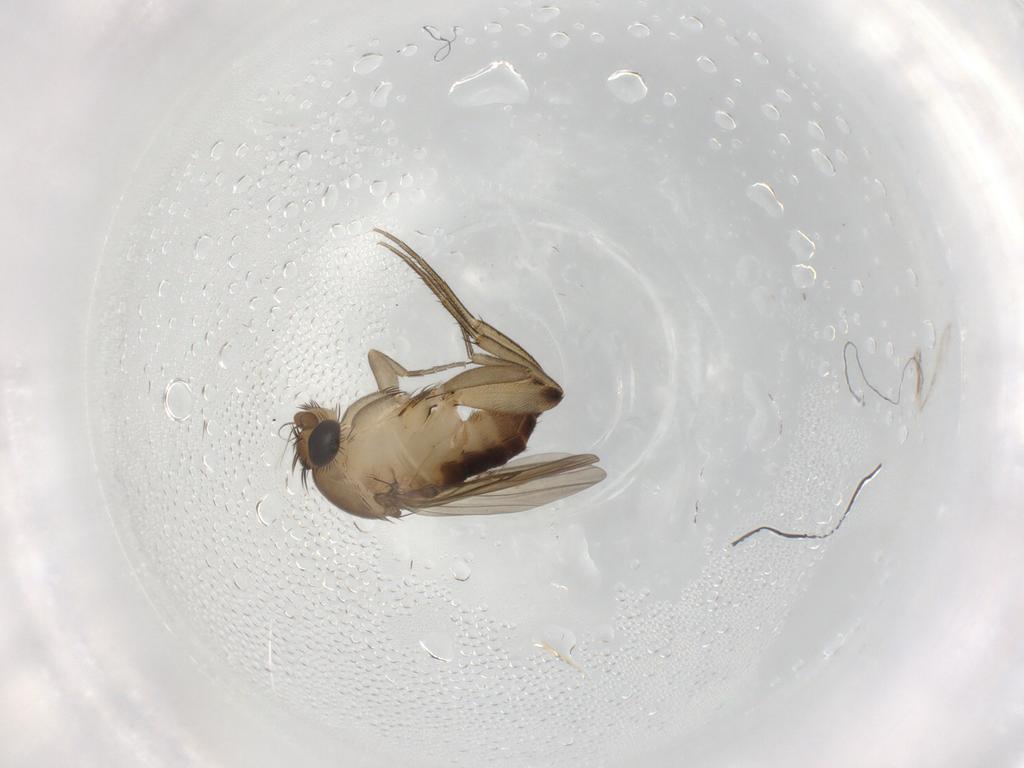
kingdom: Animalia
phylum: Arthropoda
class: Insecta
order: Diptera
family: Phoridae
